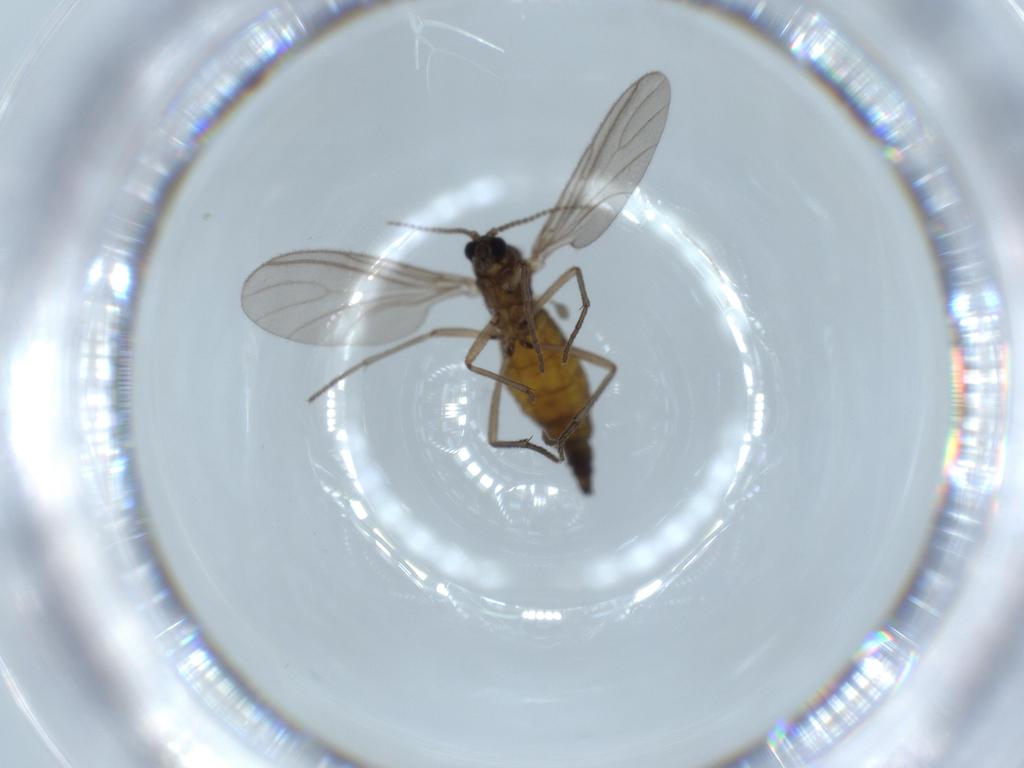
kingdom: Animalia
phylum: Arthropoda
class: Insecta
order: Diptera
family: Sciaridae
